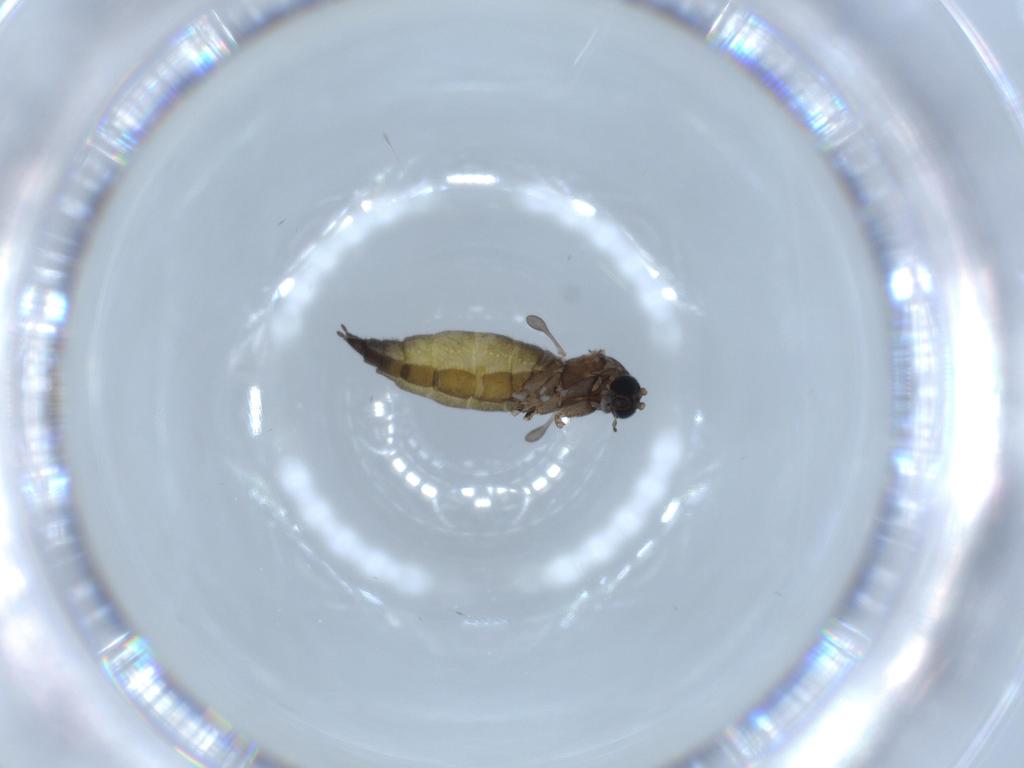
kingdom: Animalia
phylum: Arthropoda
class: Insecta
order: Diptera
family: Sciaridae
